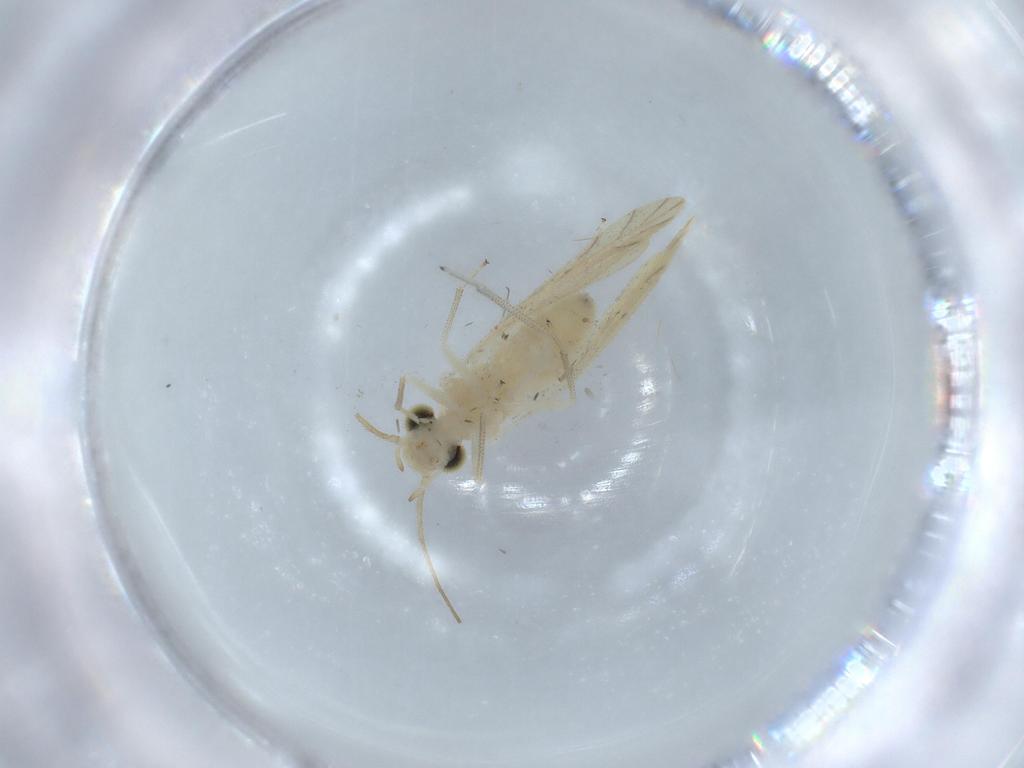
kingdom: Animalia
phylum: Arthropoda
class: Insecta
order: Psocodea
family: Caeciliusidae
